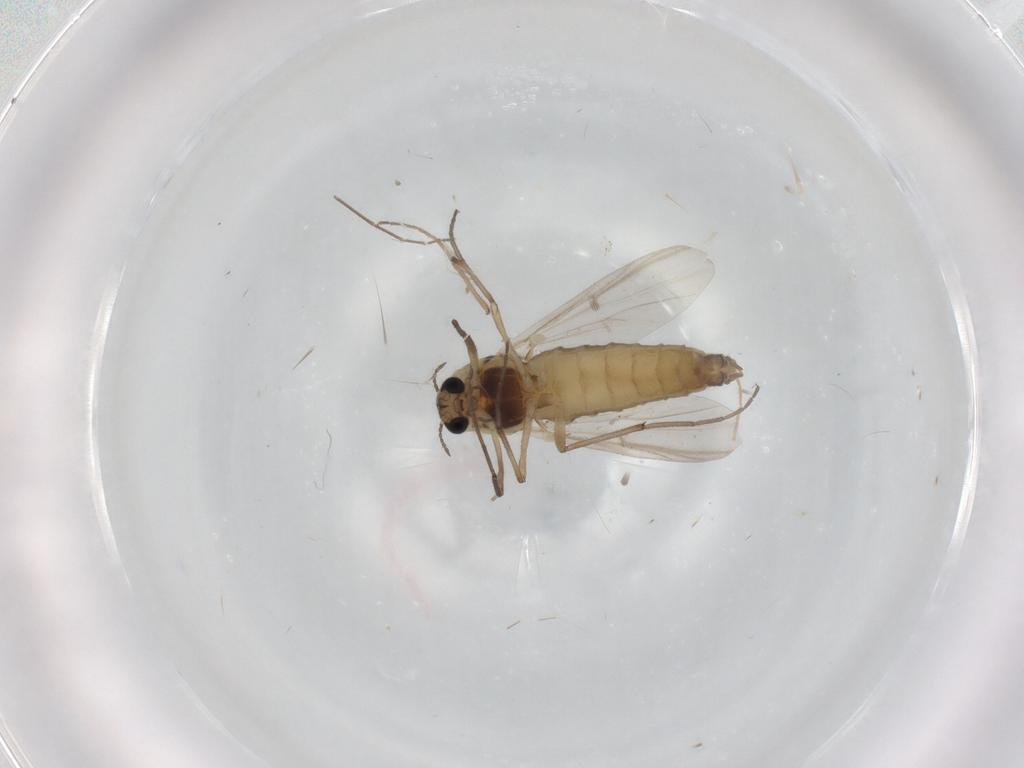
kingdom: Animalia
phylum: Arthropoda
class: Insecta
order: Diptera
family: Chironomidae
